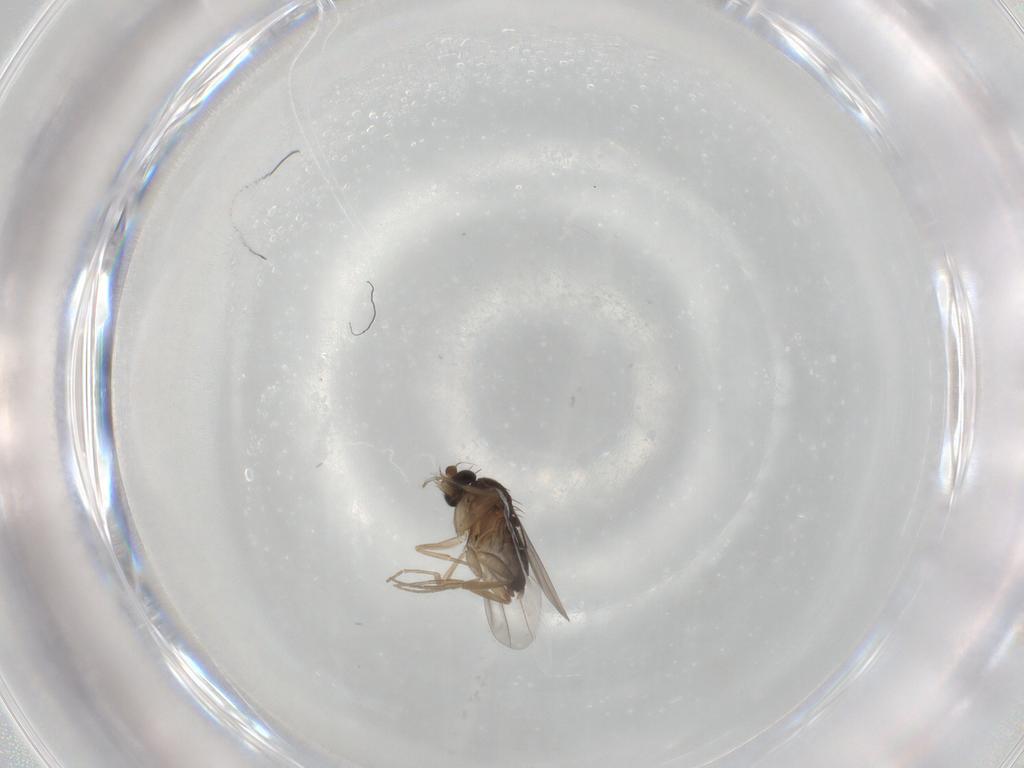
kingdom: Animalia
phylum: Arthropoda
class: Insecta
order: Diptera
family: Phoridae
